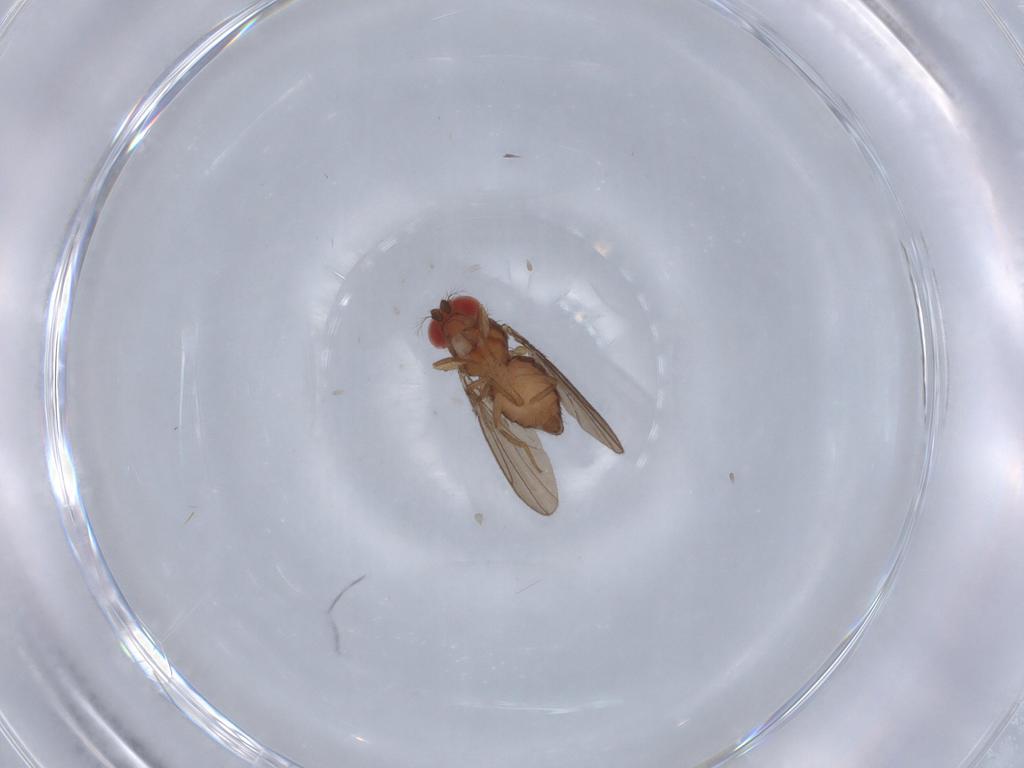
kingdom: Animalia
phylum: Arthropoda
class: Insecta
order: Diptera
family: Drosophilidae
